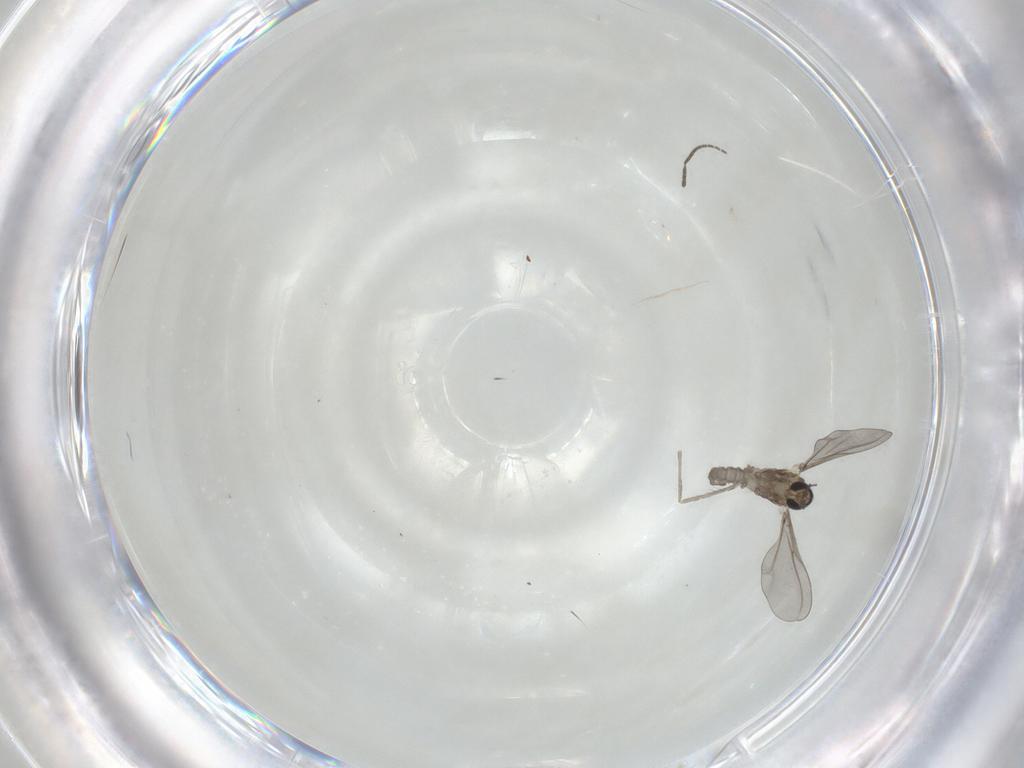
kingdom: Animalia
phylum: Arthropoda
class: Insecta
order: Diptera
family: Cecidomyiidae
